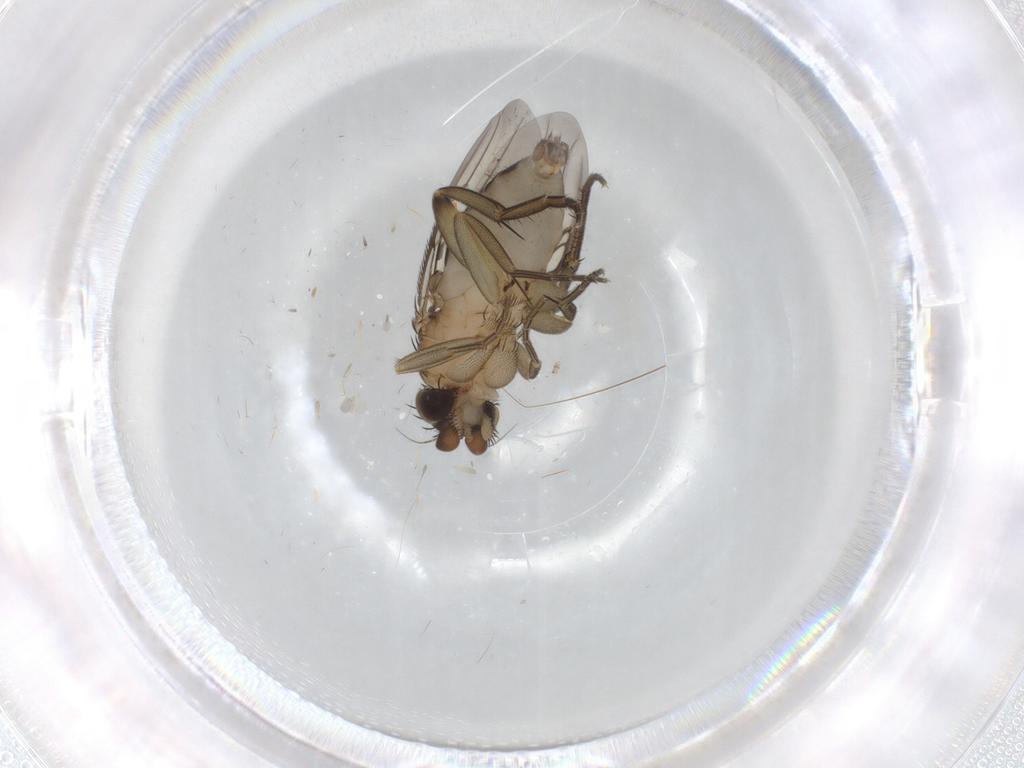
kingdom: Animalia
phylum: Arthropoda
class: Insecta
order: Diptera
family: Phoridae
